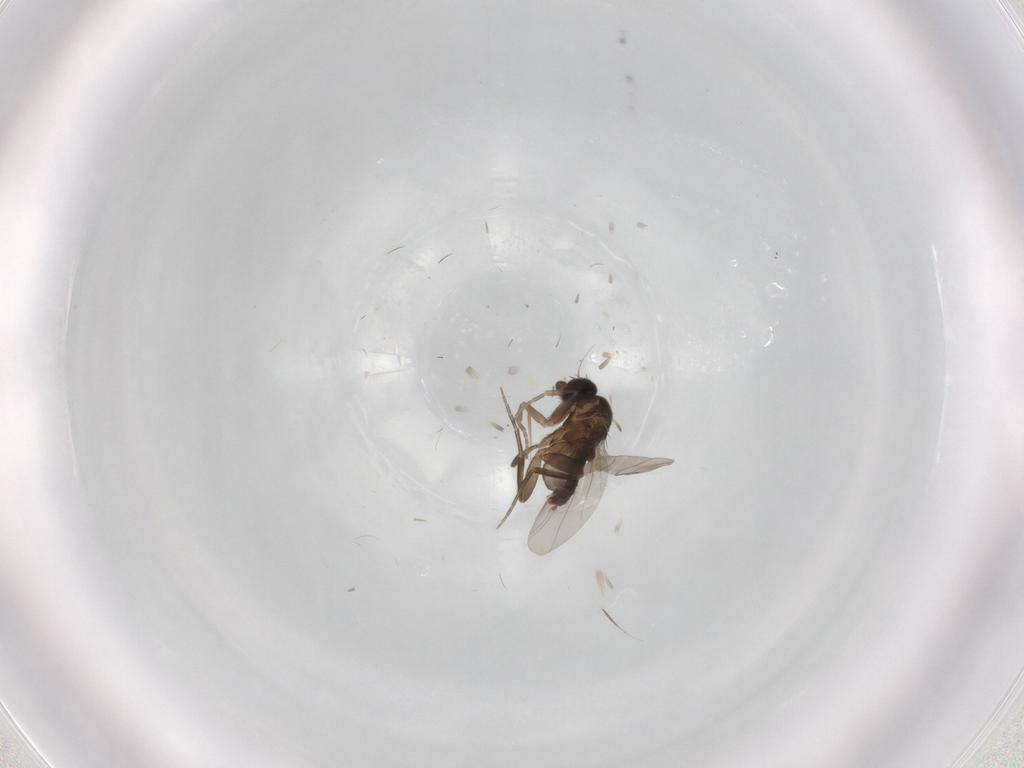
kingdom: Animalia
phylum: Arthropoda
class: Insecta
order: Diptera
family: Phoridae
